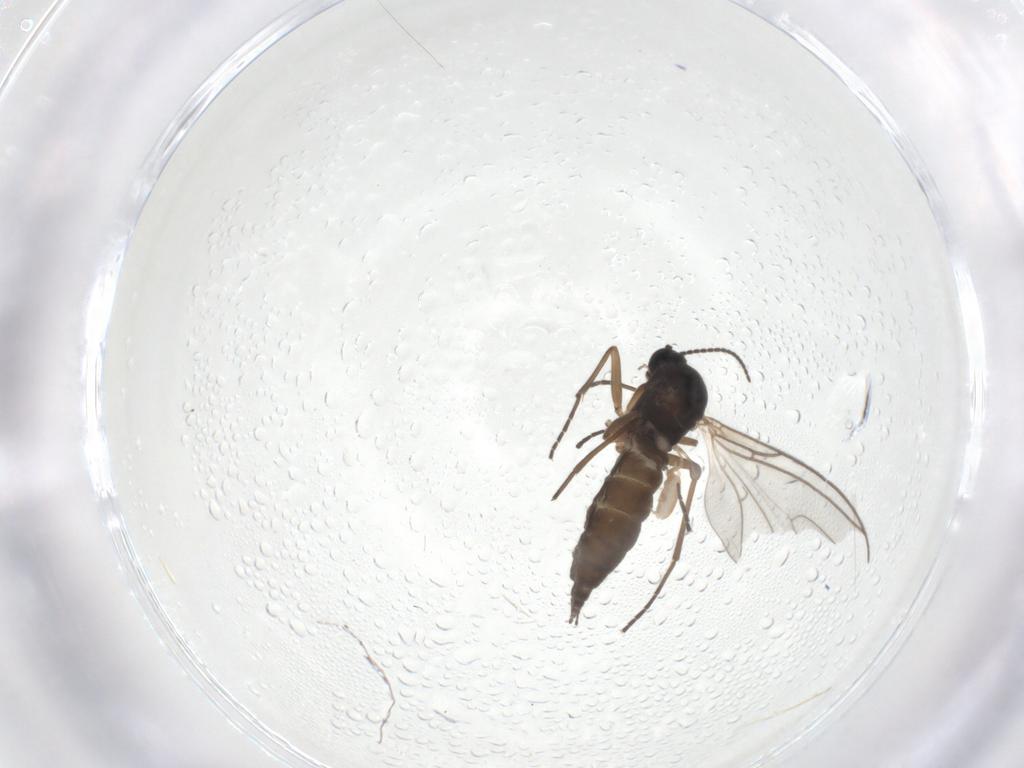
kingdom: Animalia
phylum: Arthropoda
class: Insecta
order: Diptera
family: Sciaridae
